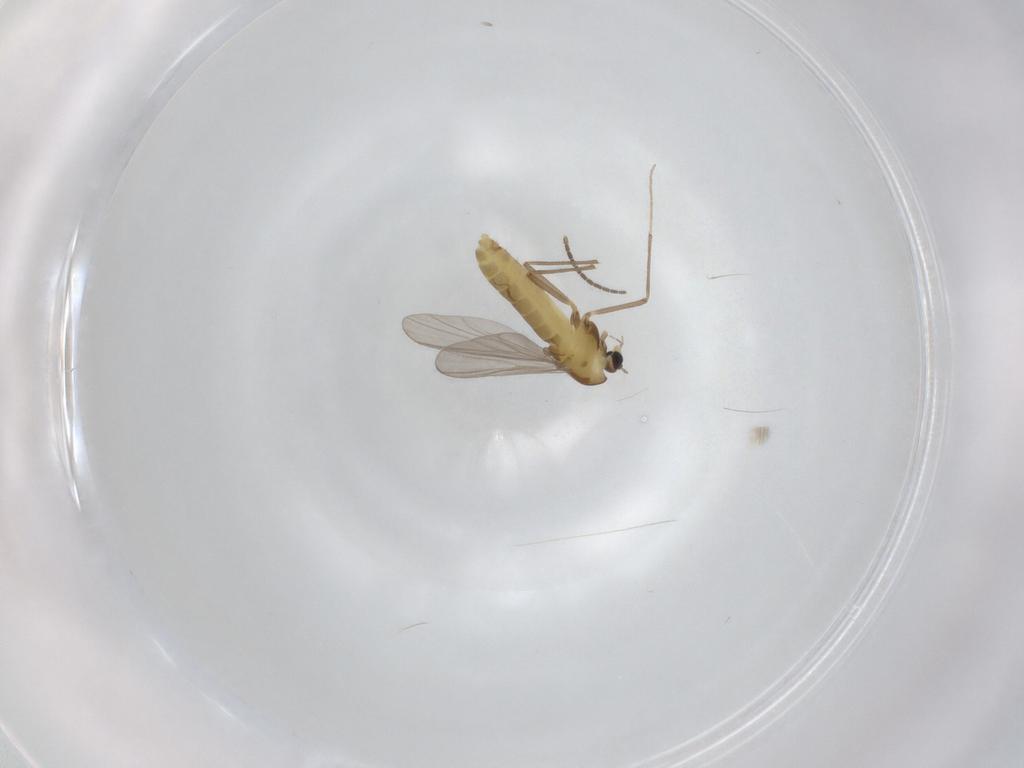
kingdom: Animalia
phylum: Arthropoda
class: Insecta
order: Diptera
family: Chironomidae
